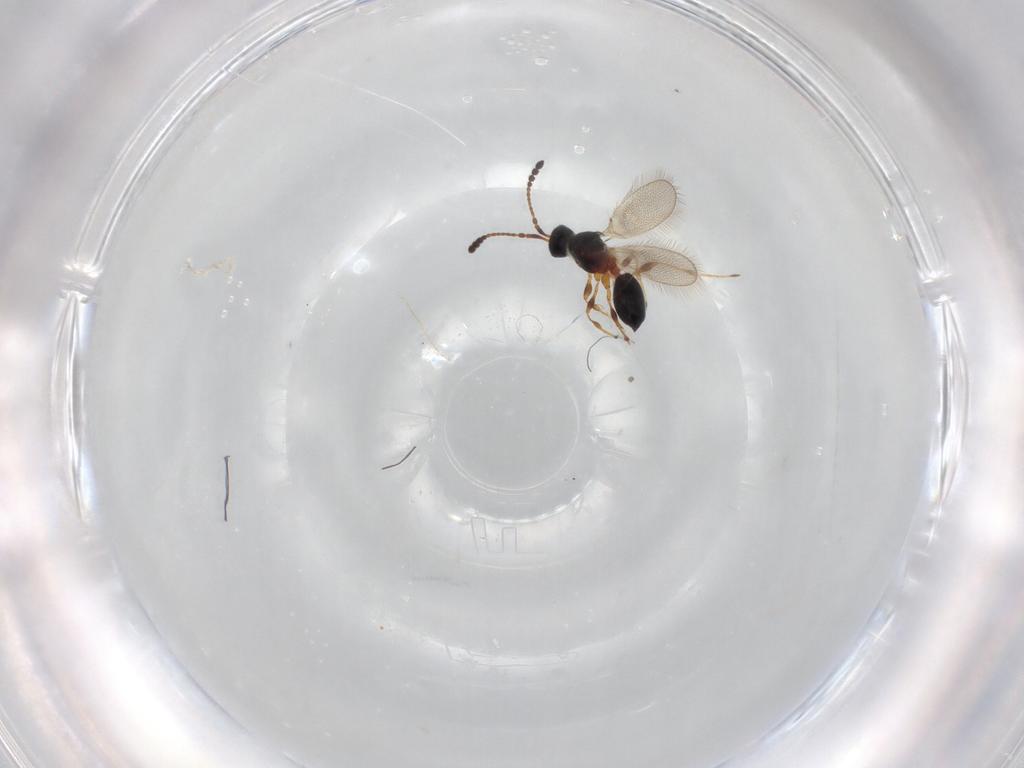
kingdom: Animalia
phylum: Arthropoda
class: Insecta
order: Hymenoptera
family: Diapriidae
